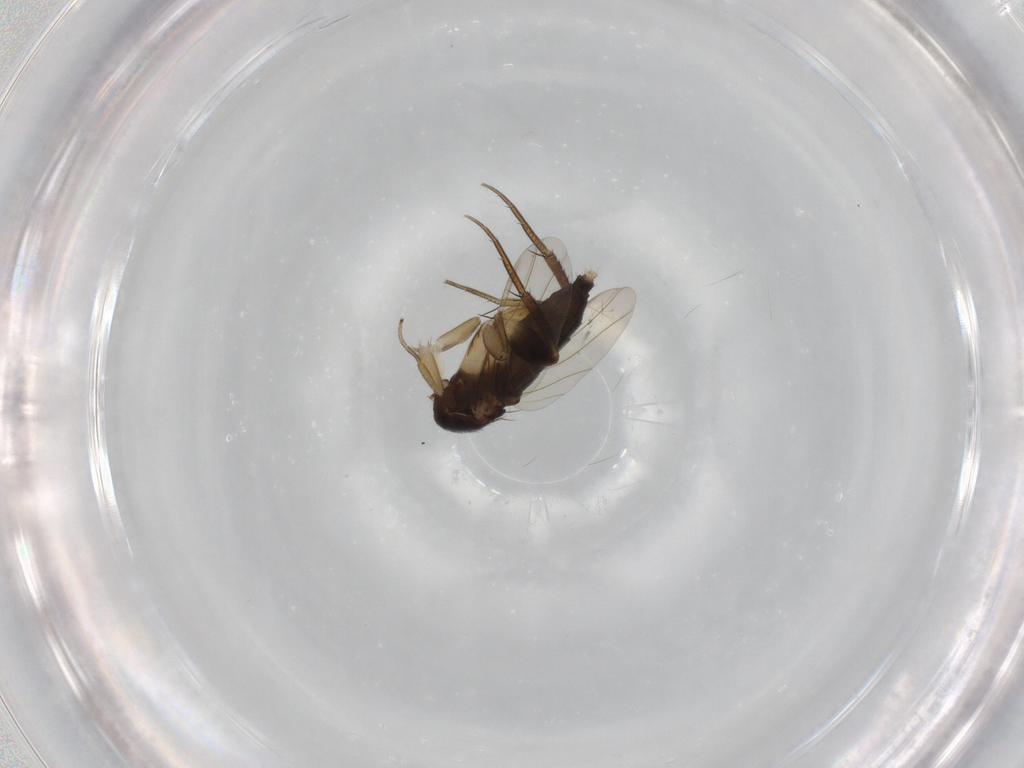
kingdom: Animalia
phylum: Arthropoda
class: Insecta
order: Diptera
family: Phoridae
